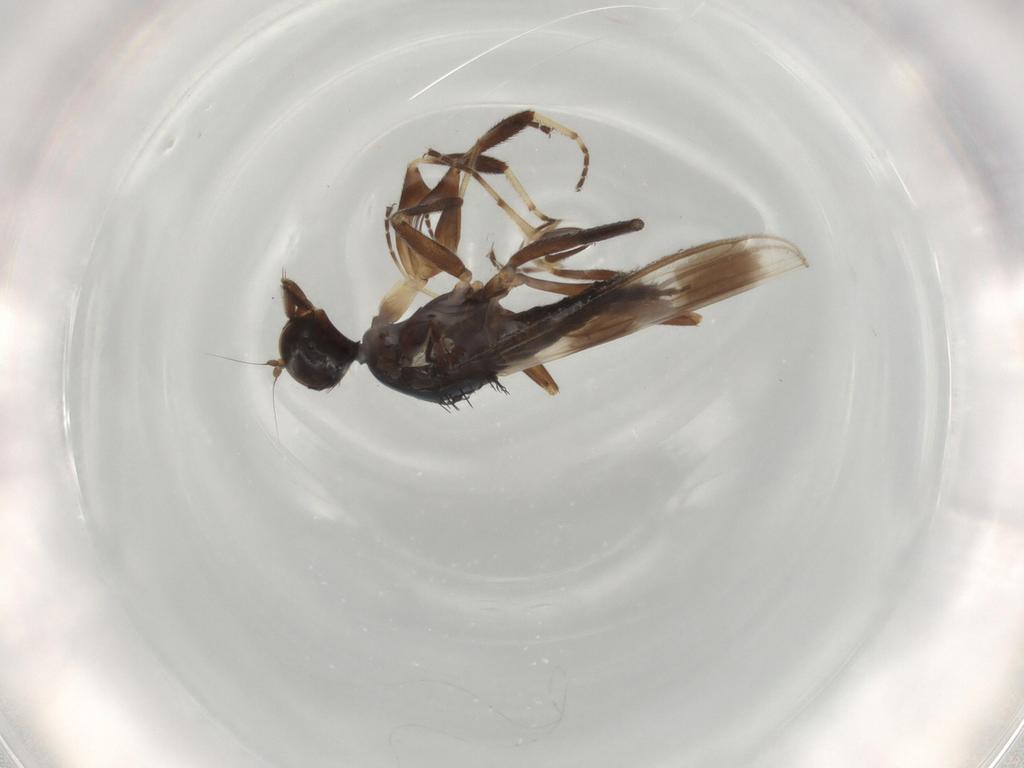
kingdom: Animalia
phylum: Arthropoda
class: Insecta
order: Diptera
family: Hybotidae
